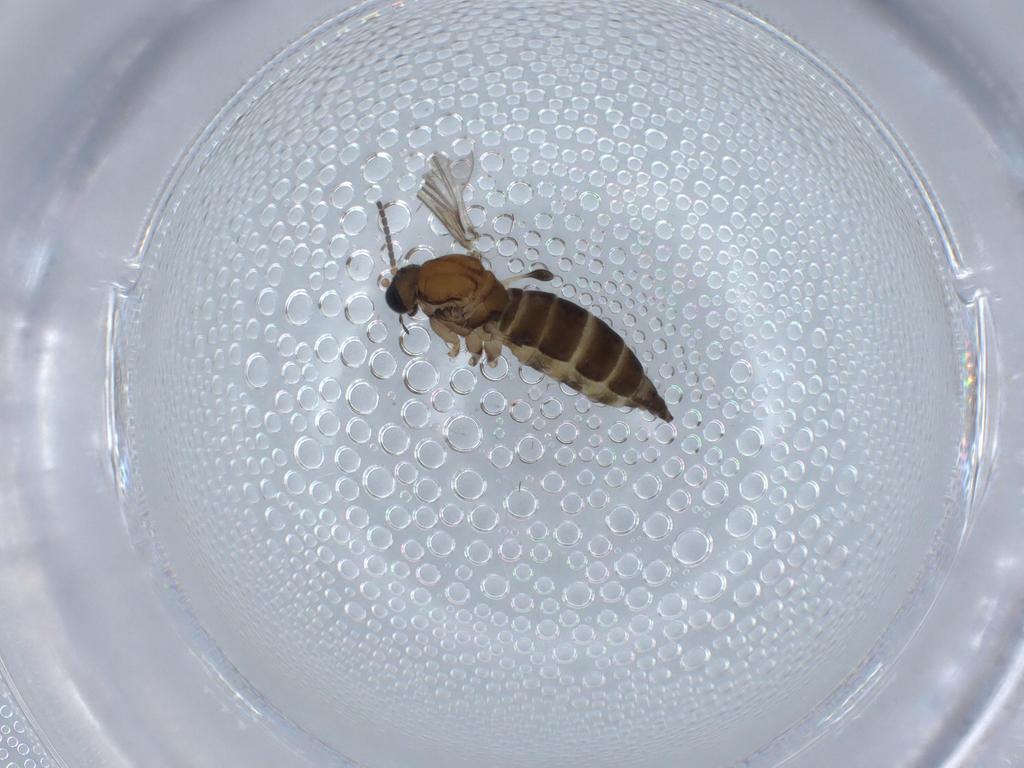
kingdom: Animalia
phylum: Arthropoda
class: Insecta
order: Diptera
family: Sciaridae
